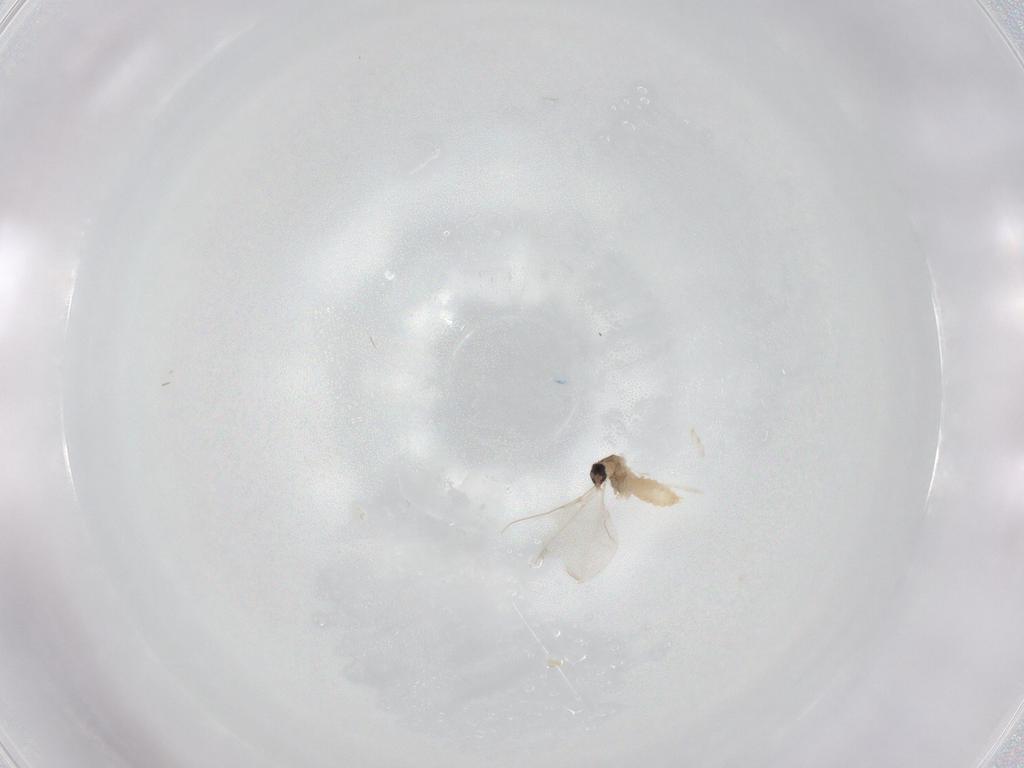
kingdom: Animalia
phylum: Arthropoda
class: Insecta
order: Diptera
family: Cecidomyiidae
